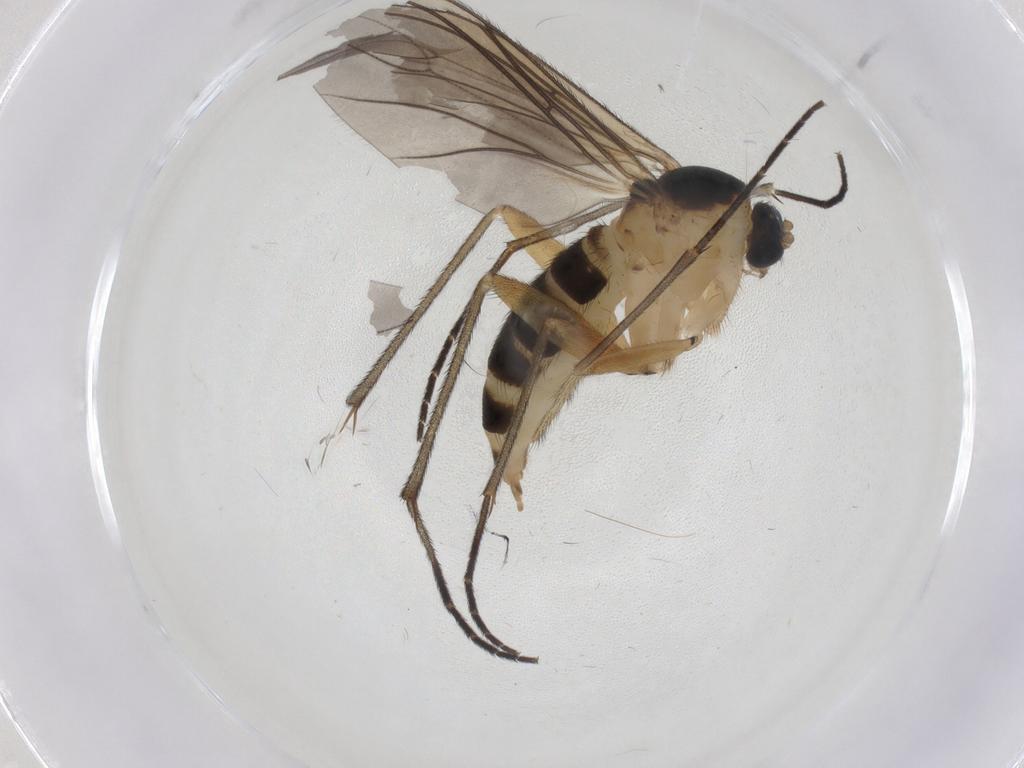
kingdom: Animalia
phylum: Arthropoda
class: Insecta
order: Diptera
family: Sciaridae
